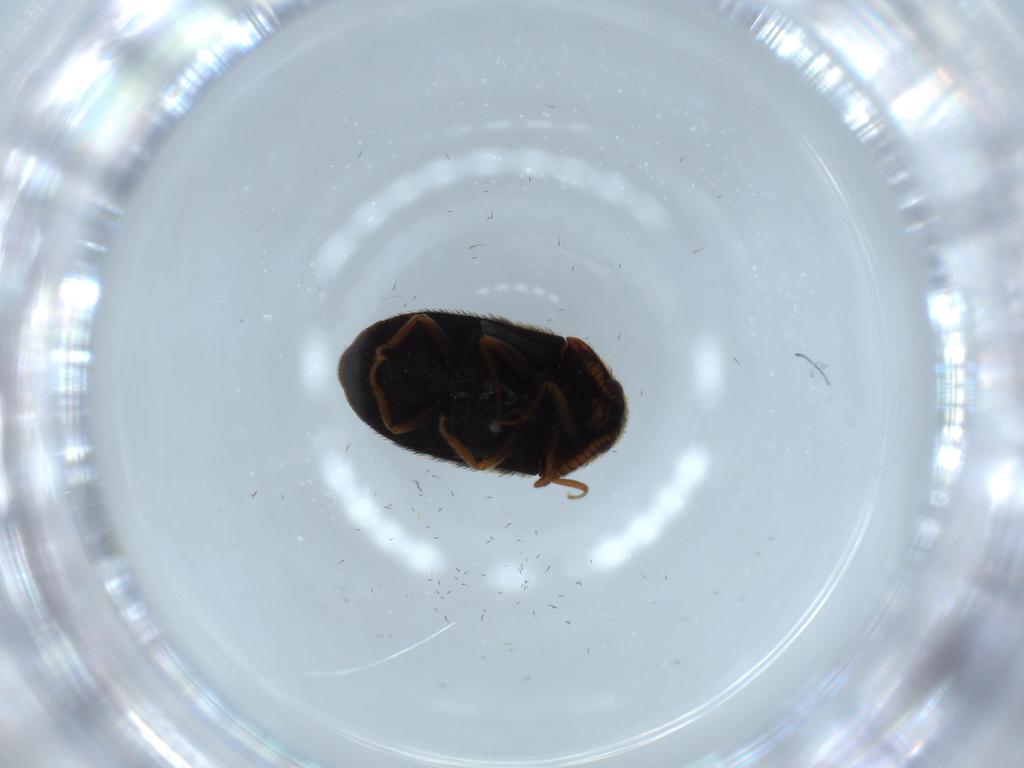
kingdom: Animalia
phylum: Arthropoda
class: Insecta
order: Coleoptera
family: Dermestidae
